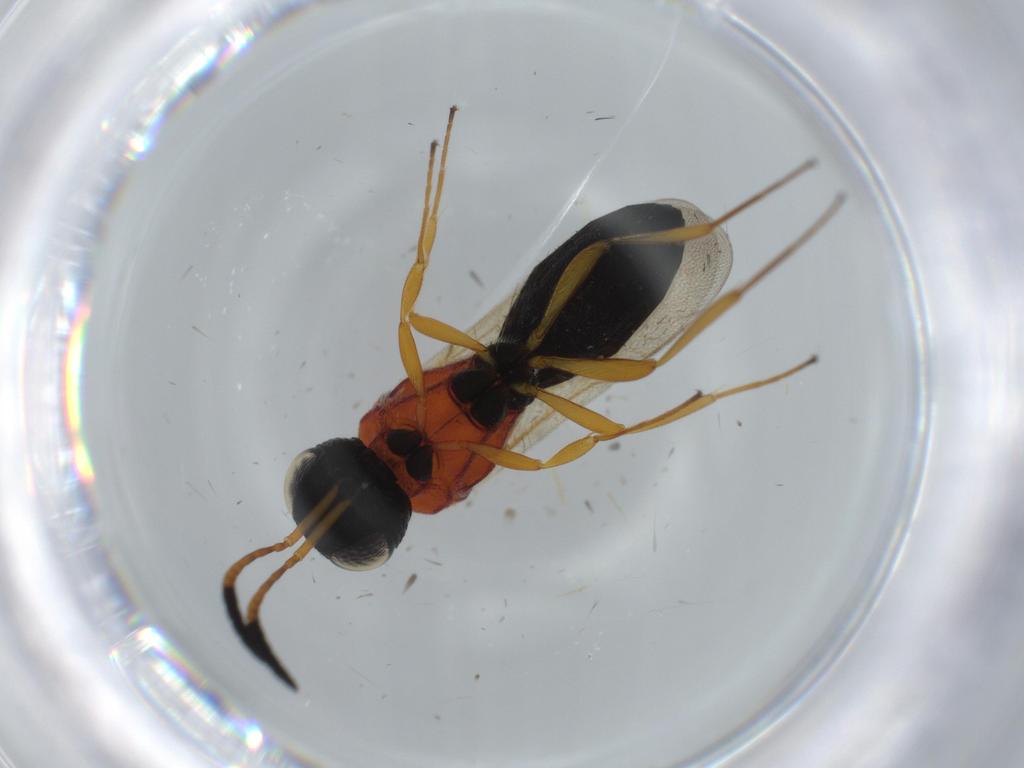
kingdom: Animalia
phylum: Arthropoda
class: Insecta
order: Hymenoptera
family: Scelionidae
